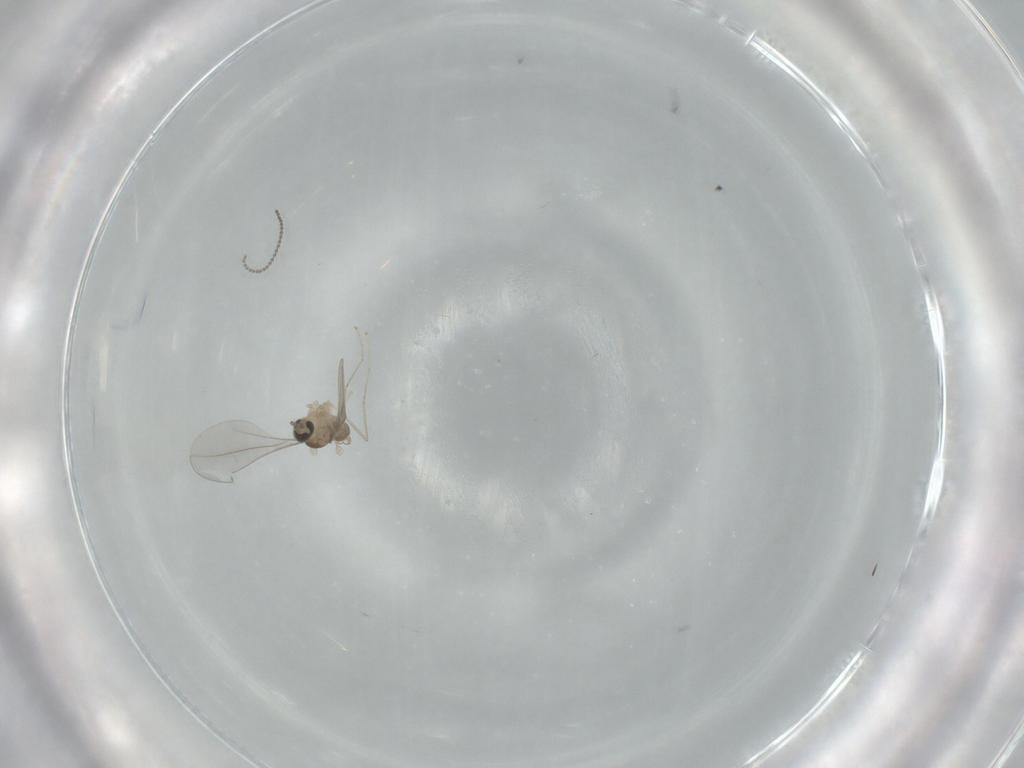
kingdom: Animalia
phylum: Arthropoda
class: Insecta
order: Diptera
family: Cecidomyiidae
